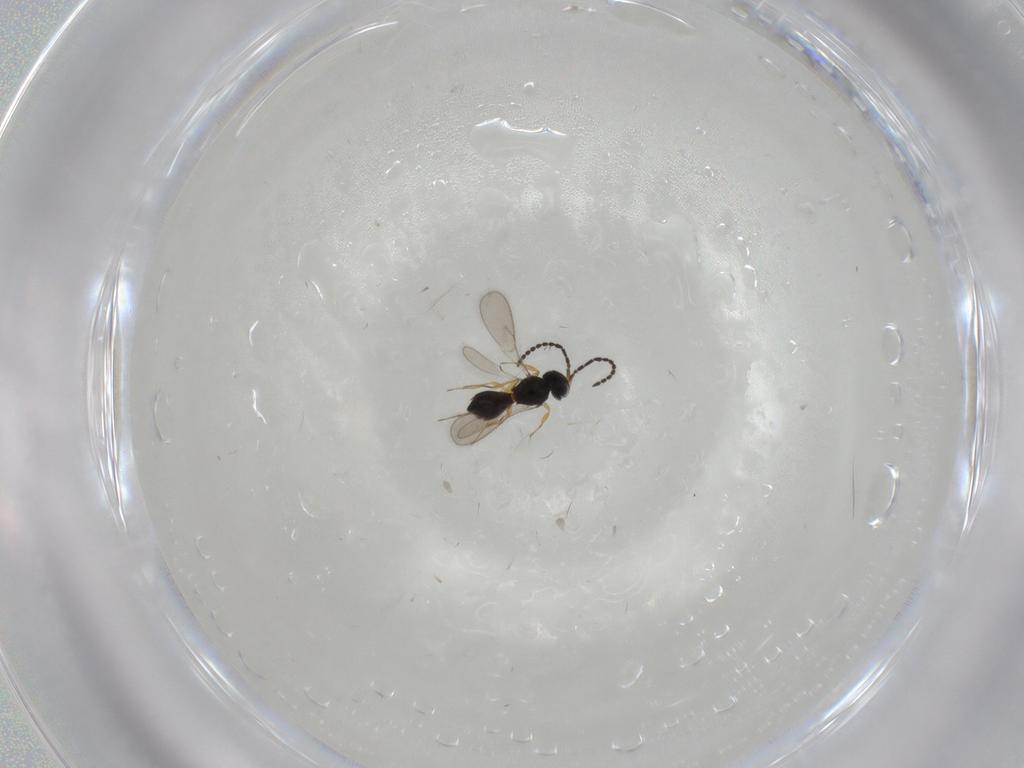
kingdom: Animalia
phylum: Arthropoda
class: Insecta
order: Hymenoptera
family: Scelionidae
